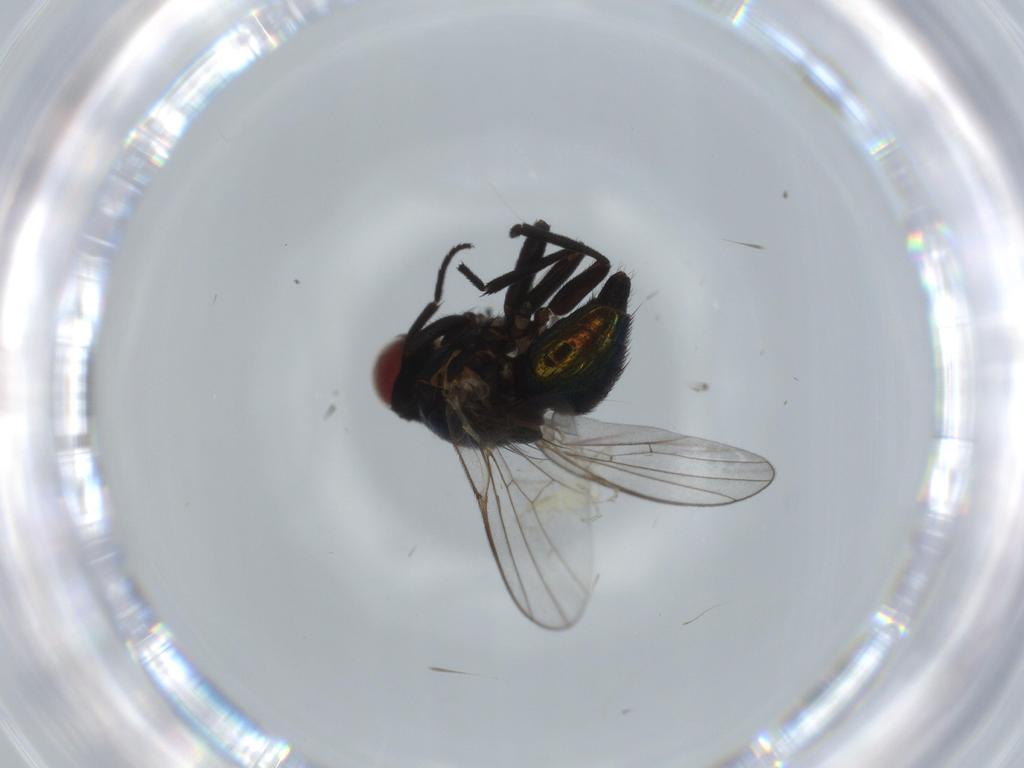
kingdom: Animalia
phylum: Arthropoda
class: Insecta
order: Diptera
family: Agromyzidae
